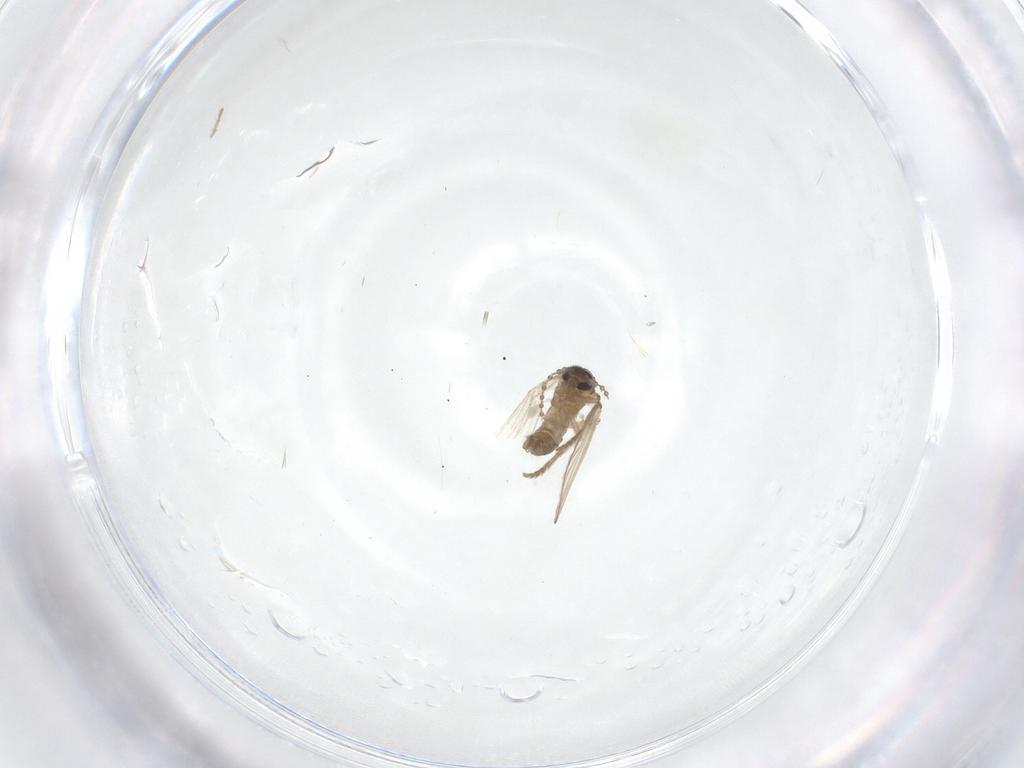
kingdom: Animalia
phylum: Arthropoda
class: Insecta
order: Diptera
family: Psychodidae
